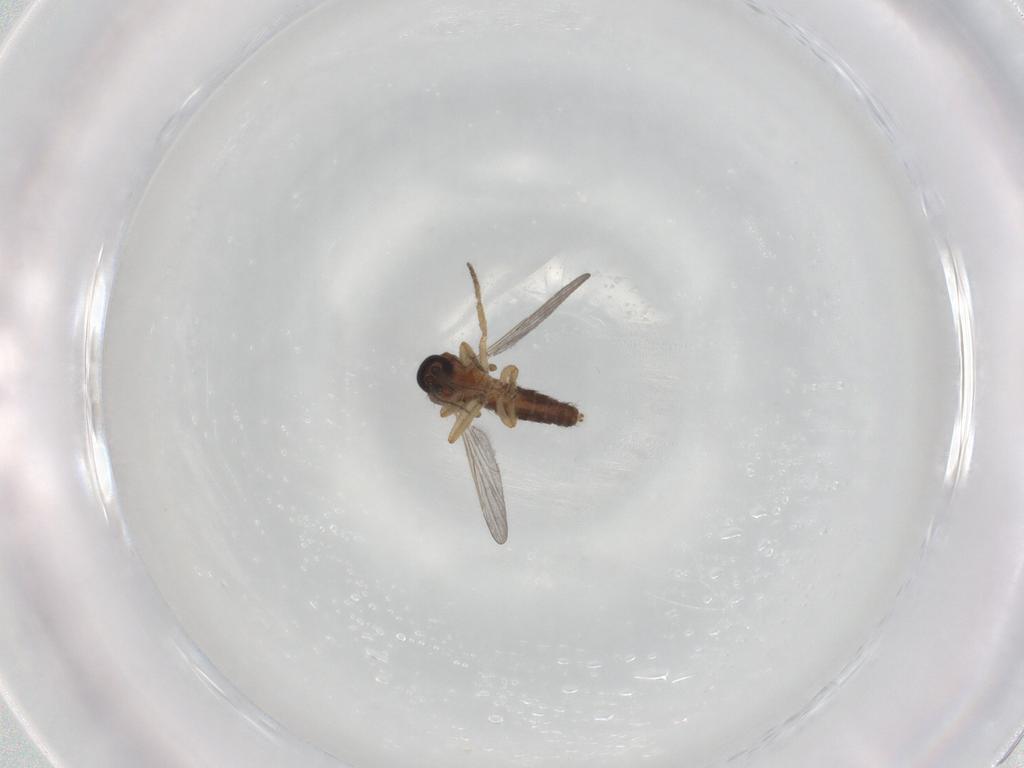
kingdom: Animalia
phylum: Arthropoda
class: Insecta
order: Diptera
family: Ceratopogonidae
